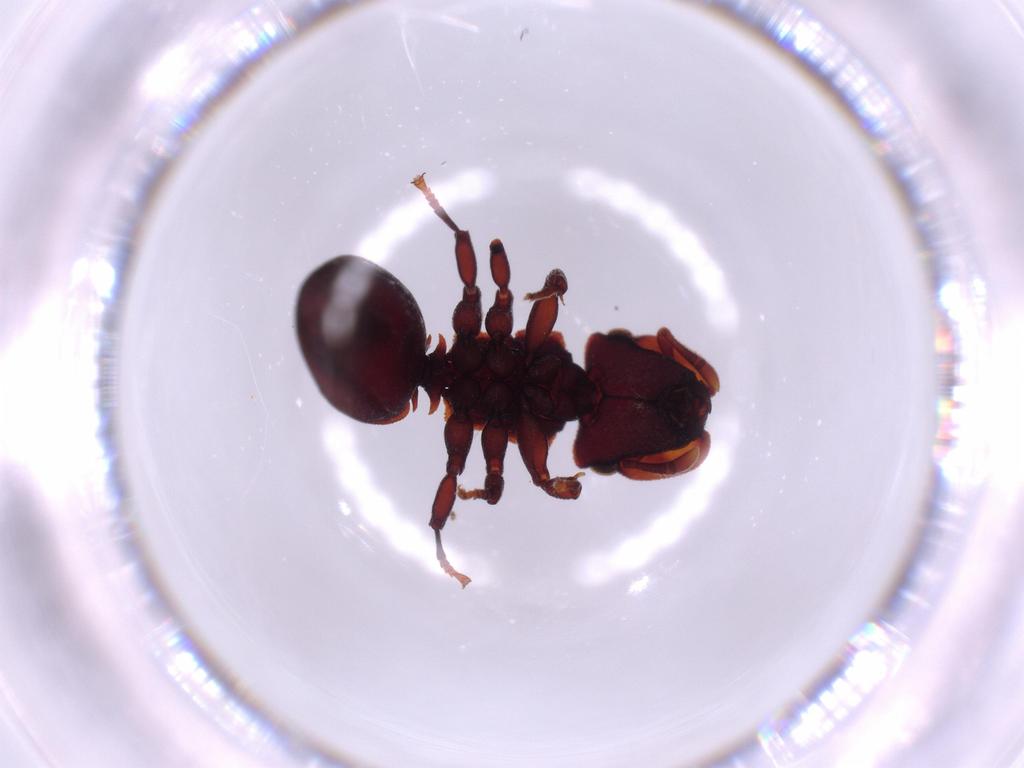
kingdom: Animalia
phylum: Arthropoda
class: Insecta
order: Hymenoptera
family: Formicidae
